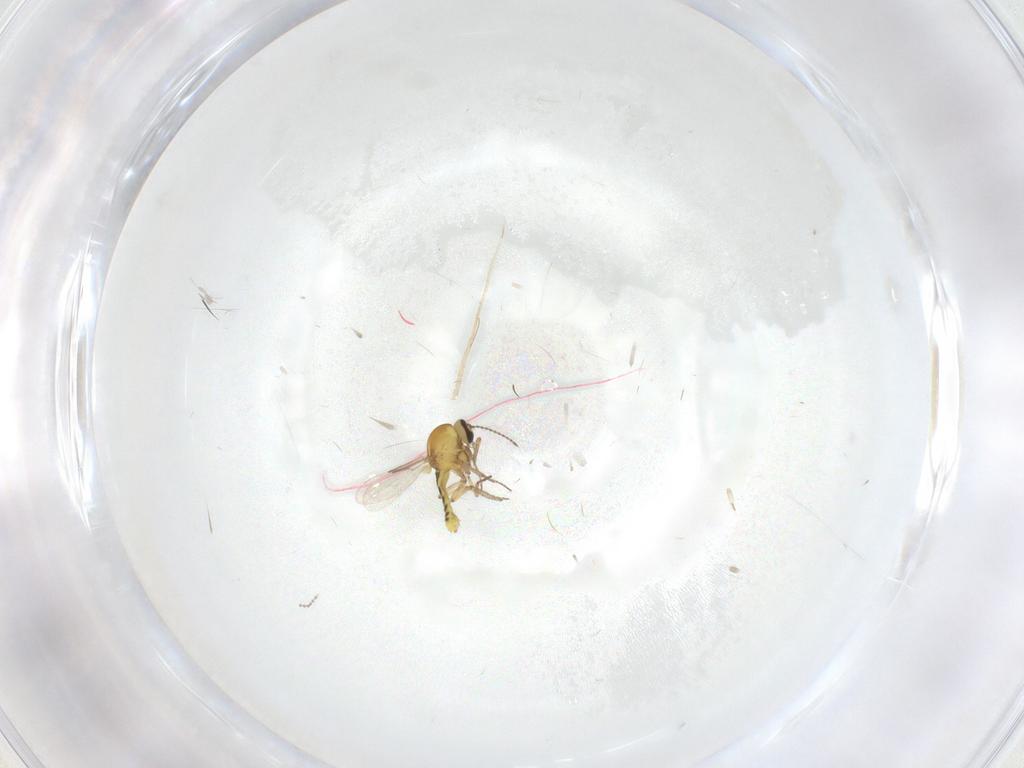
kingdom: Animalia
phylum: Arthropoda
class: Insecta
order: Diptera
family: Ceratopogonidae
